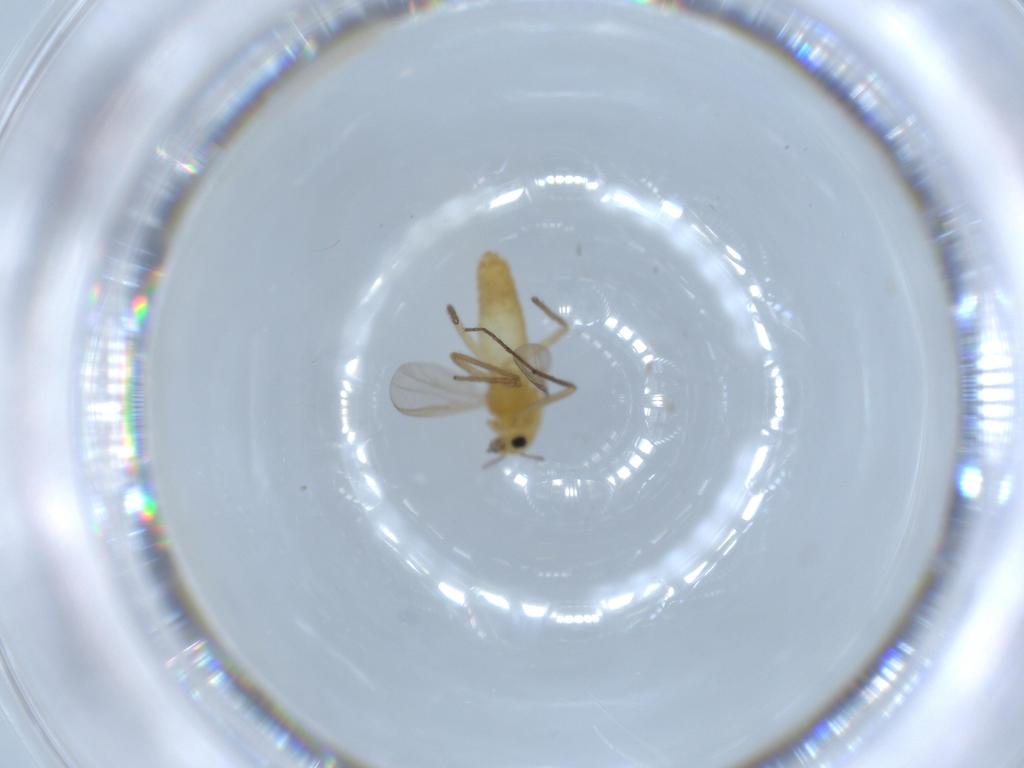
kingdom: Animalia
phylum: Arthropoda
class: Insecta
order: Diptera
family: Chironomidae
